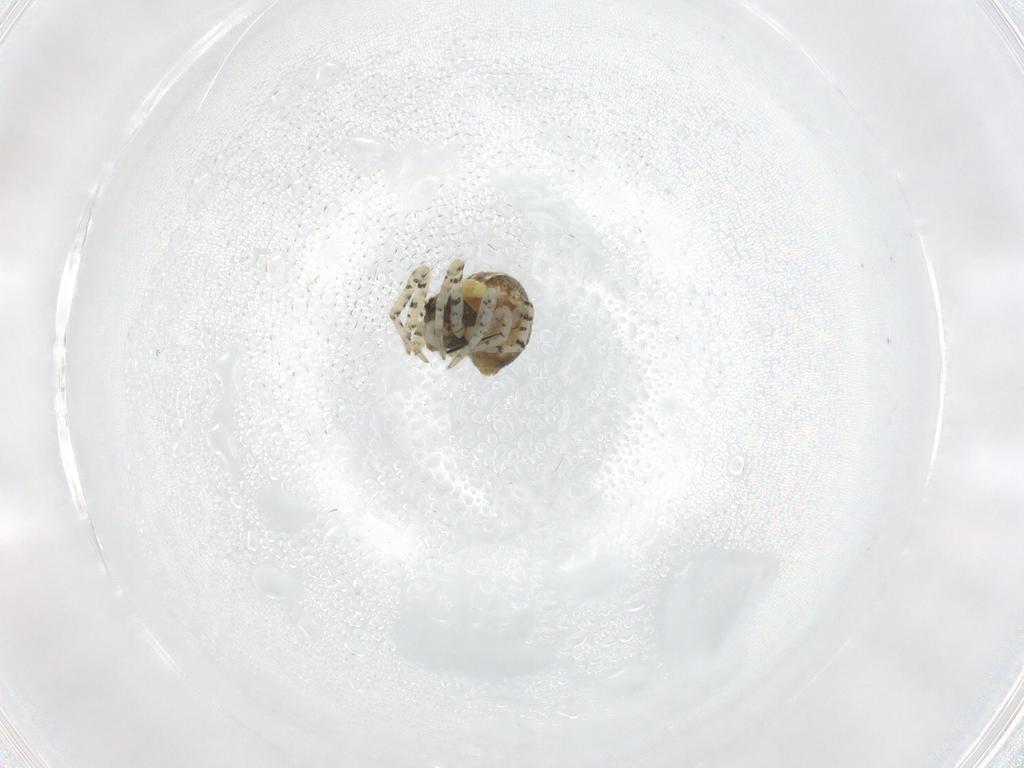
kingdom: Animalia
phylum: Arthropoda
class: Arachnida
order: Araneae
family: Theridiidae
